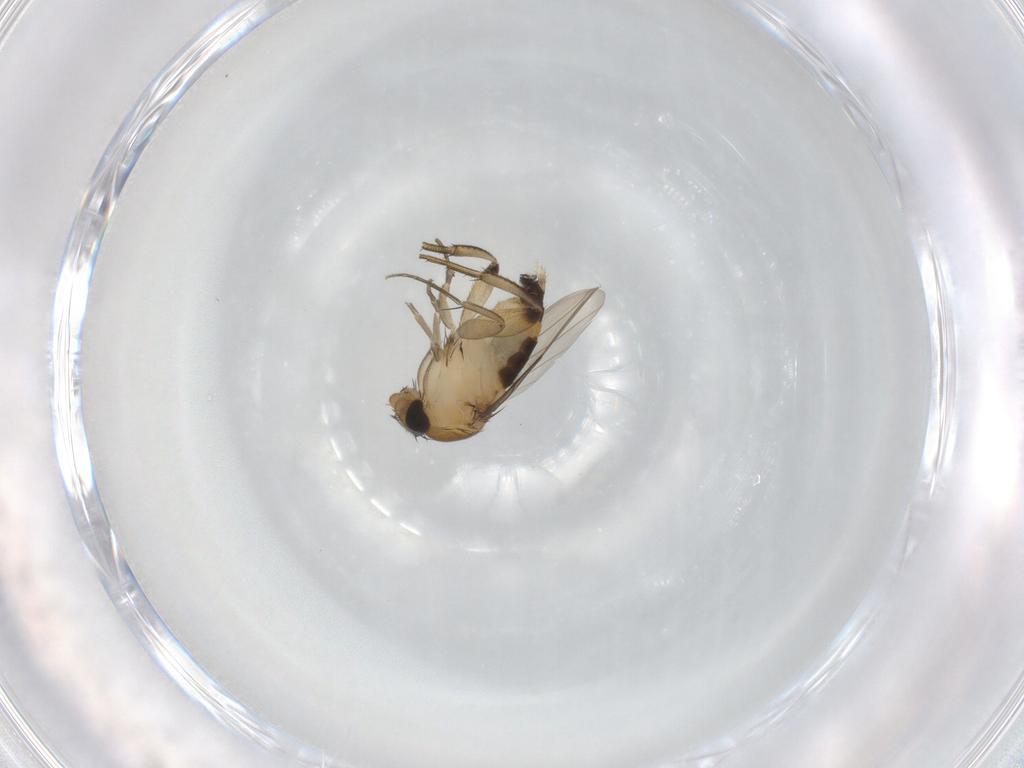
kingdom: Animalia
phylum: Arthropoda
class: Insecta
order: Diptera
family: Phoridae
